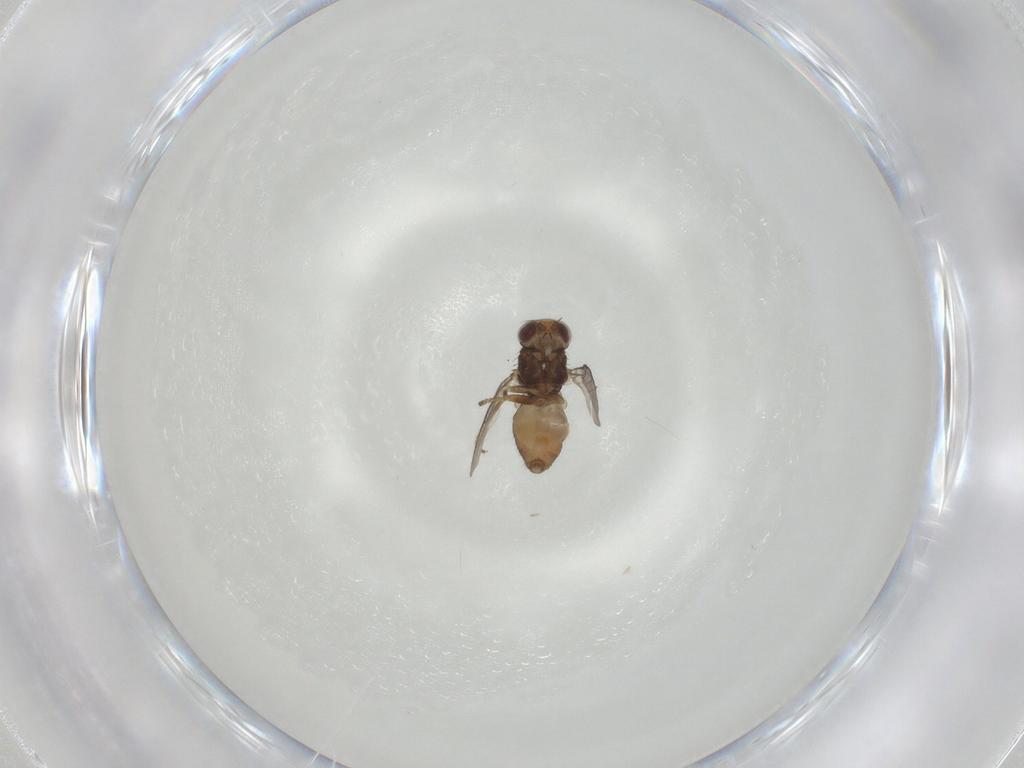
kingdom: Animalia
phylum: Arthropoda
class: Insecta
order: Diptera
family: Chloropidae
